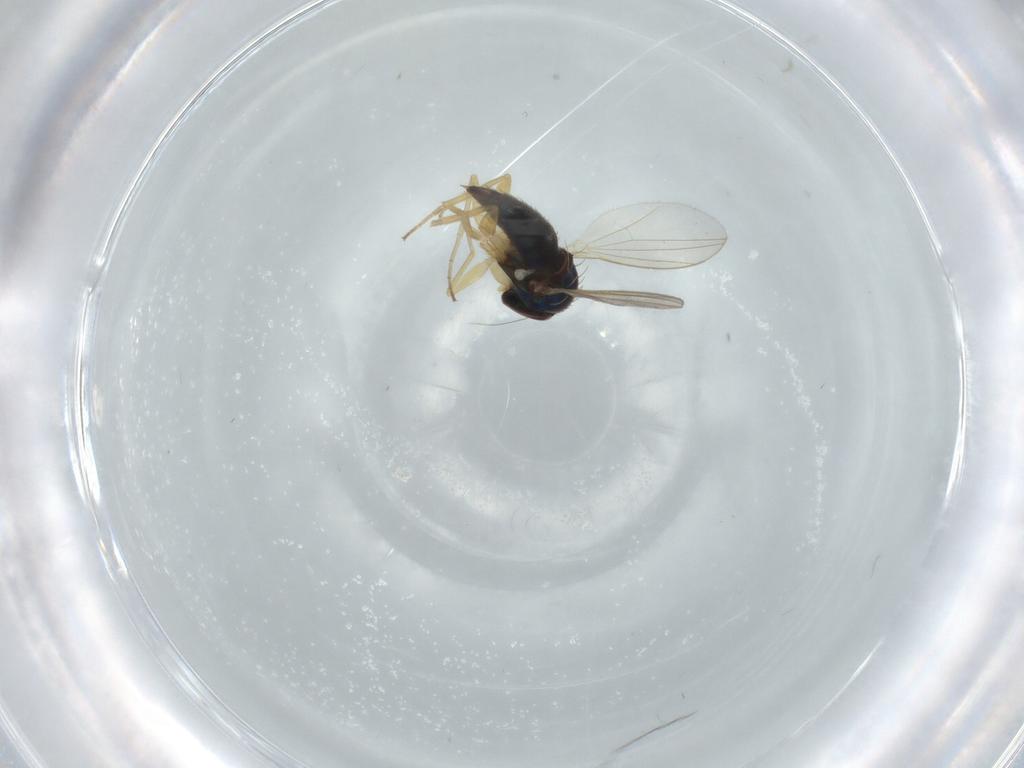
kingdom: Animalia
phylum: Arthropoda
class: Insecta
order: Diptera
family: Dolichopodidae
